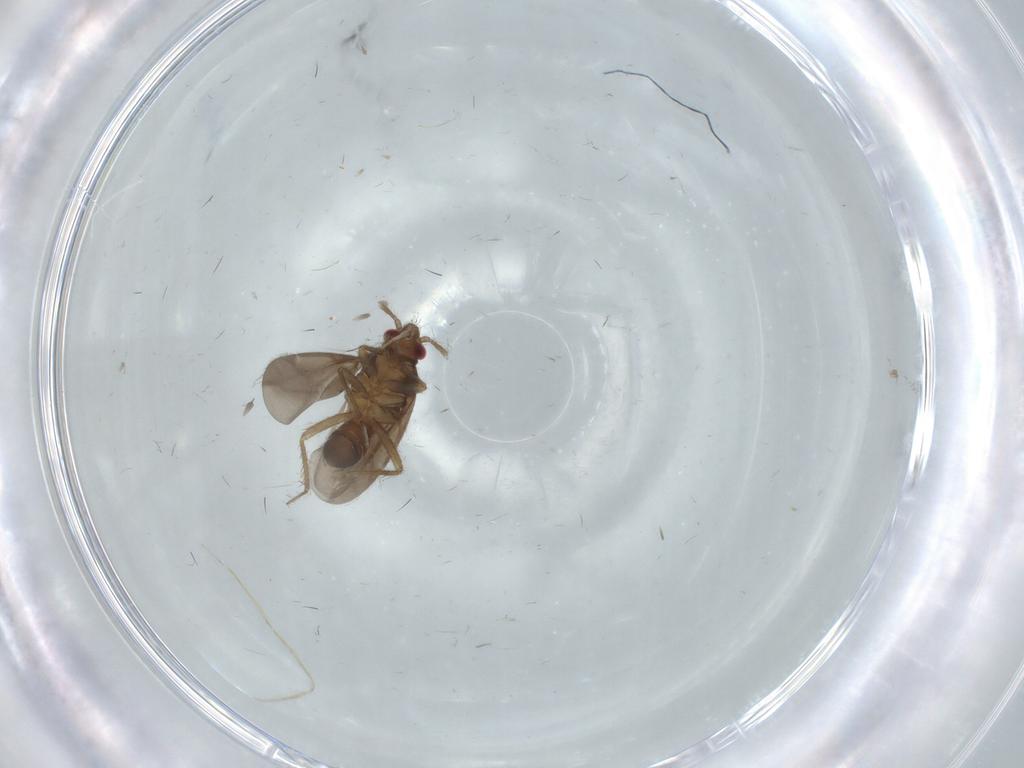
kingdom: Animalia
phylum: Arthropoda
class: Insecta
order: Hemiptera
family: Ceratocombidae
